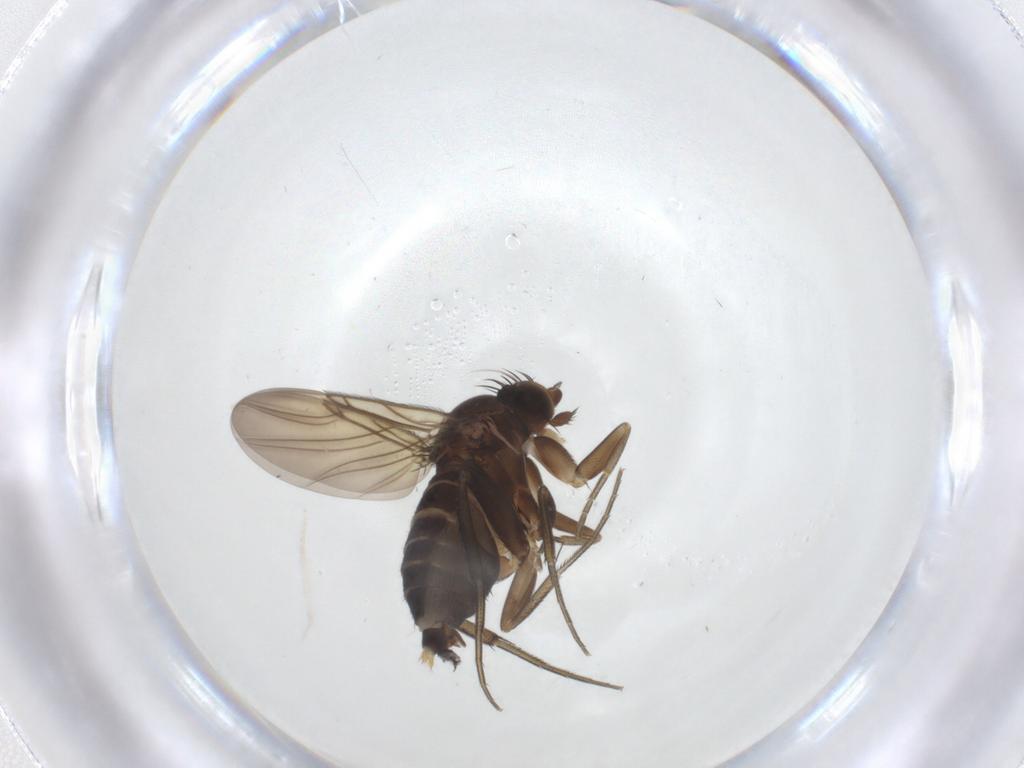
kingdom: Animalia
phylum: Arthropoda
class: Insecta
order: Diptera
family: Phoridae
